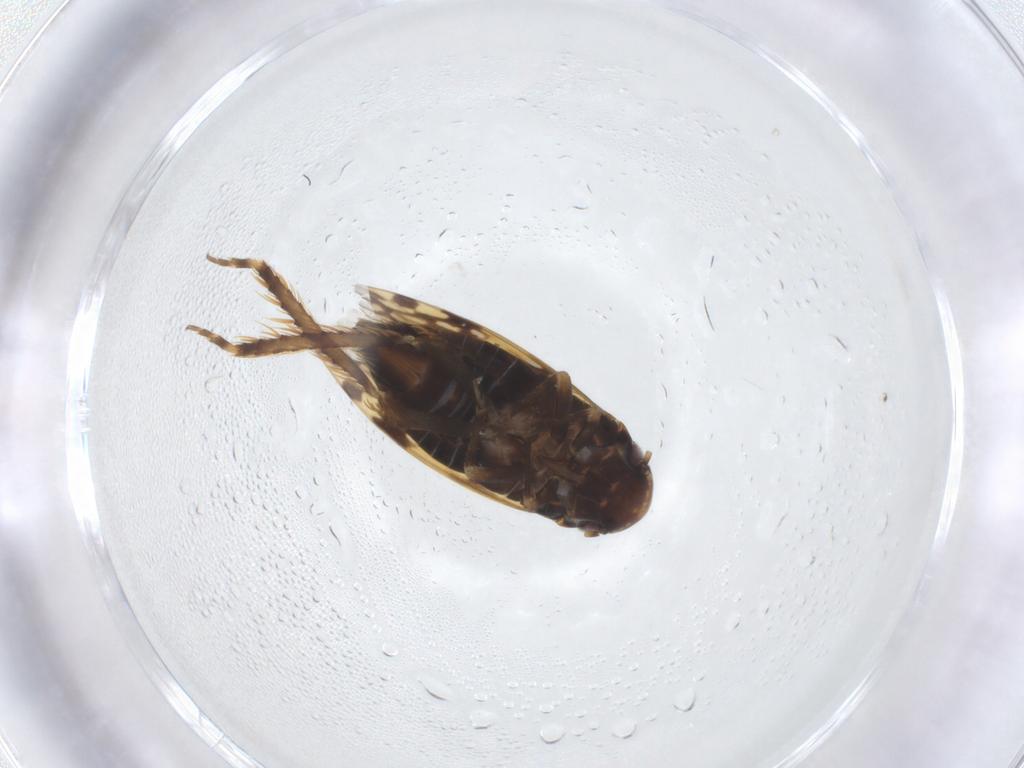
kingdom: Animalia
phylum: Arthropoda
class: Insecta
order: Hemiptera
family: Cicadellidae
